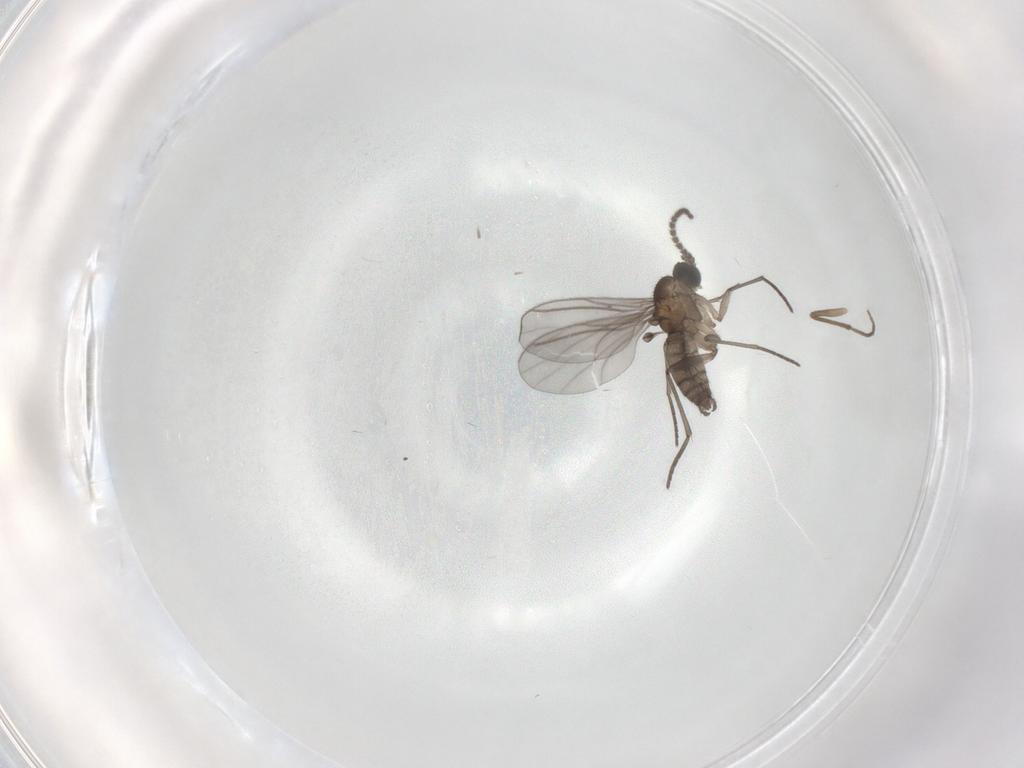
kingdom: Animalia
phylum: Arthropoda
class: Insecta
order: Diptera
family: Chironomidae
